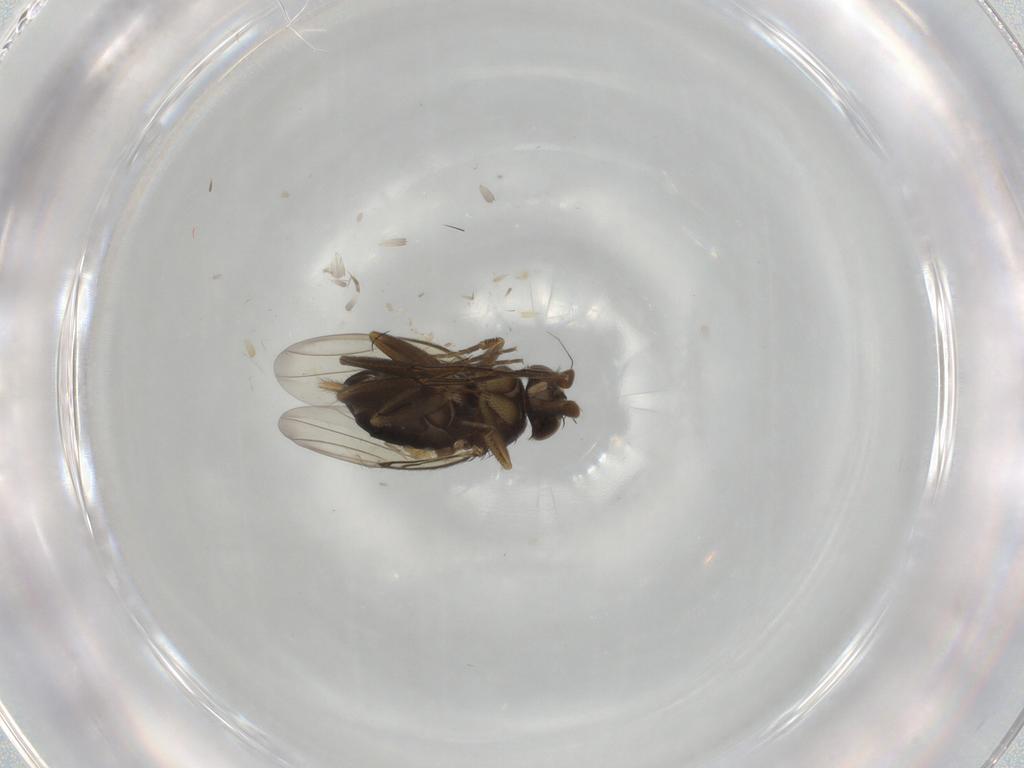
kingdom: Animalia
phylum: Arthropoda
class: Insecta
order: Diptera
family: Phoridae
